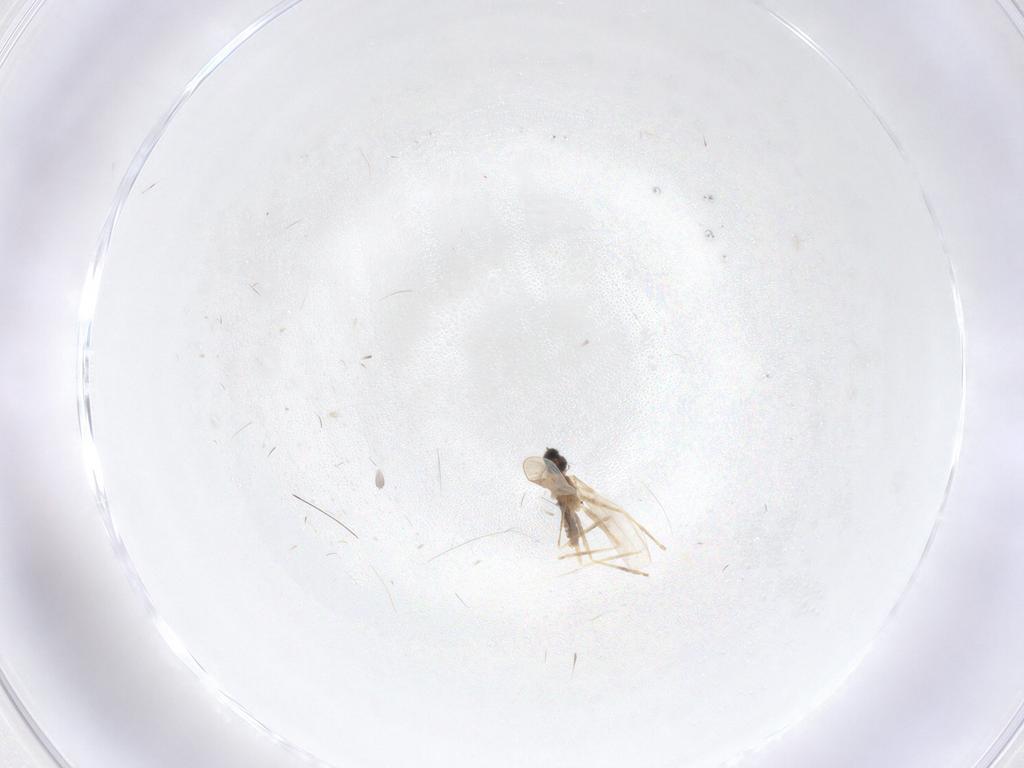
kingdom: Animalia
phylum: Arthropoda
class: Insecta
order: Diptera
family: Cecidomyiidae
